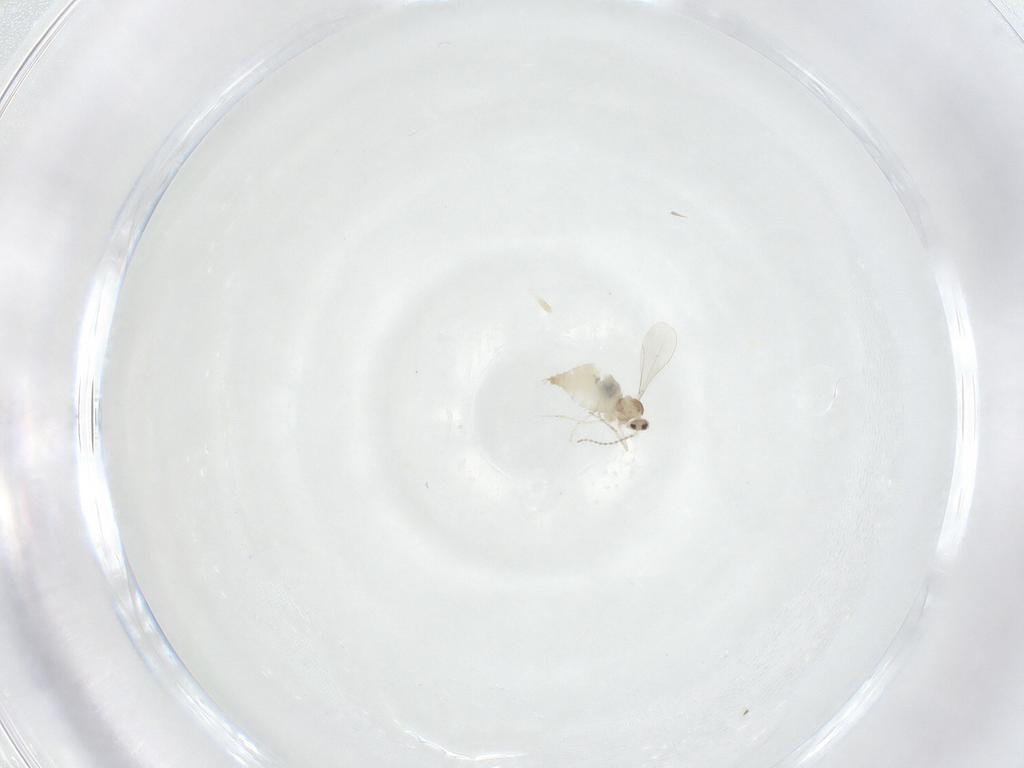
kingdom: Animalia
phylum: Arthropoda
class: Insecta
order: Diptera
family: Cecidomyiidae
